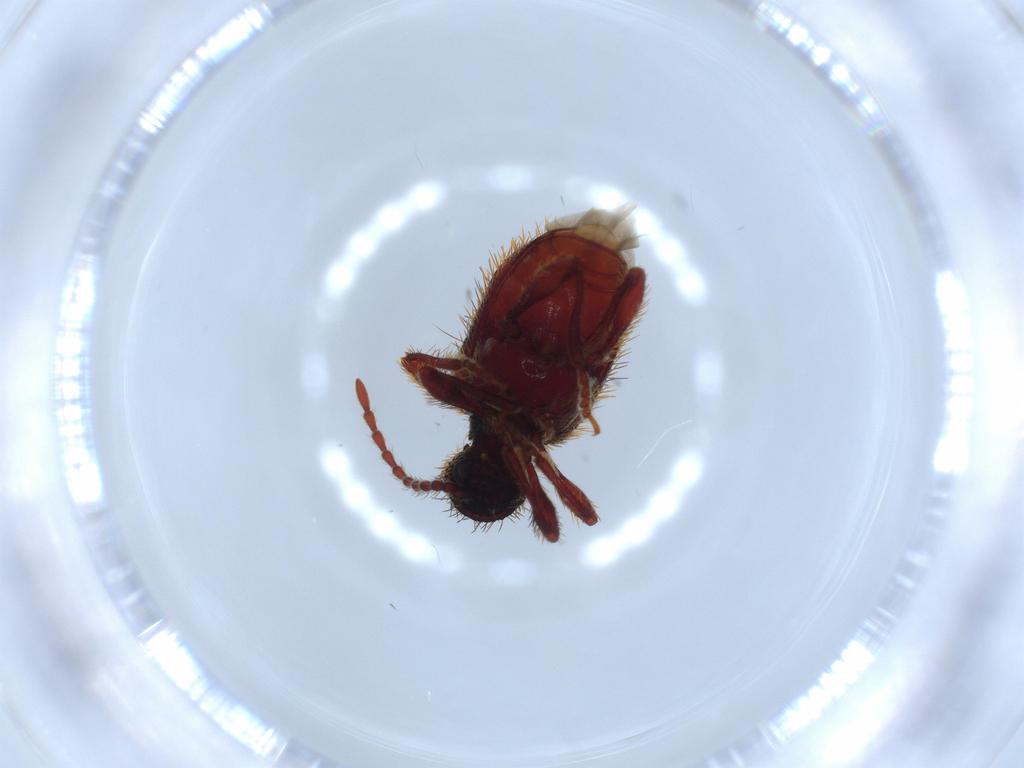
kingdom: Animalia
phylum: Arthropoda
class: Insecta
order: Coleoptera
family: Ptinidae
